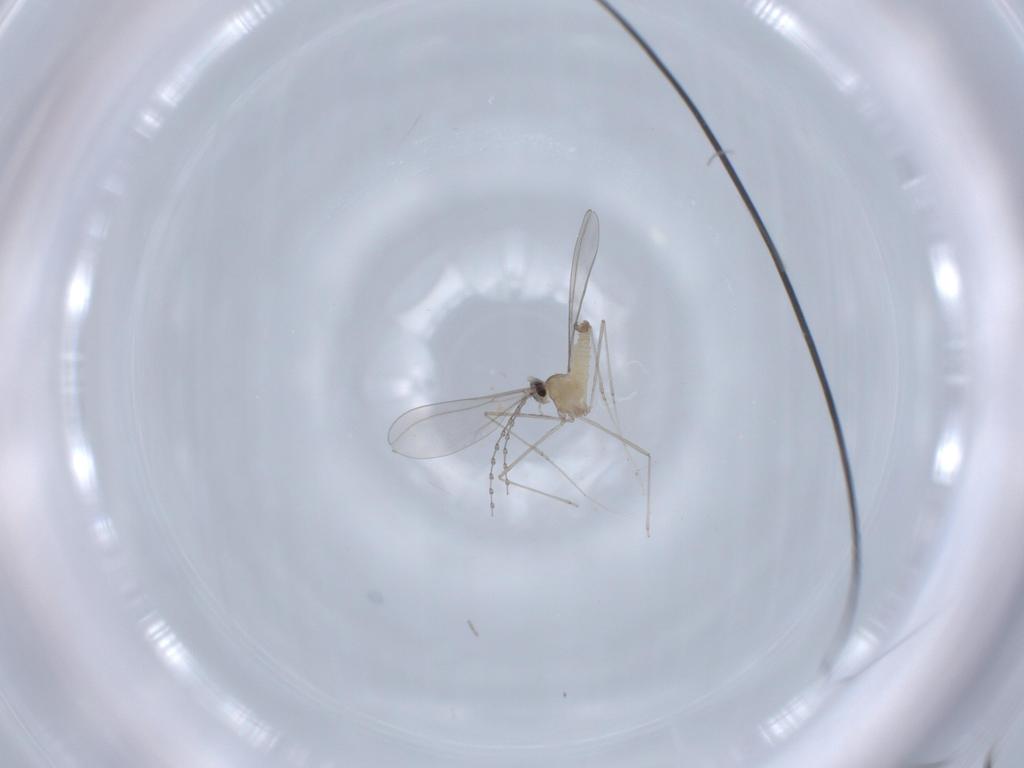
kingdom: Animalia
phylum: Arthropoda
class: Insecta
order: Diptera
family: Cecidomyiidae
